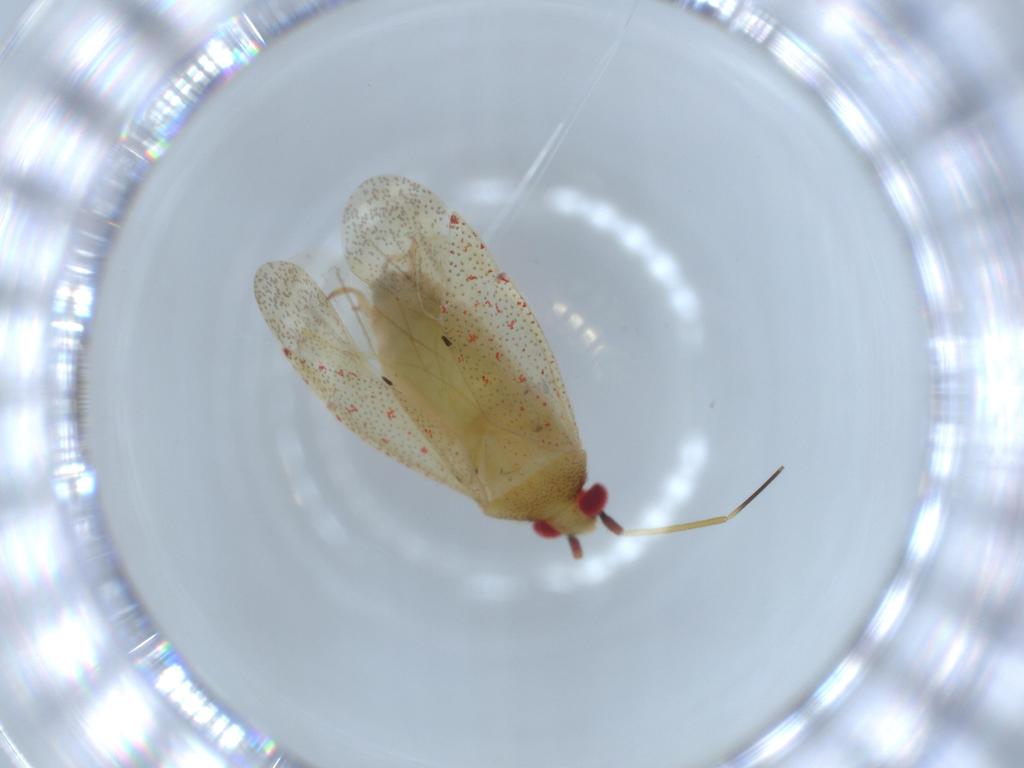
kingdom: Animalia
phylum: Arthropoda
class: Insecta
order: Hemiptera
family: Miridae
